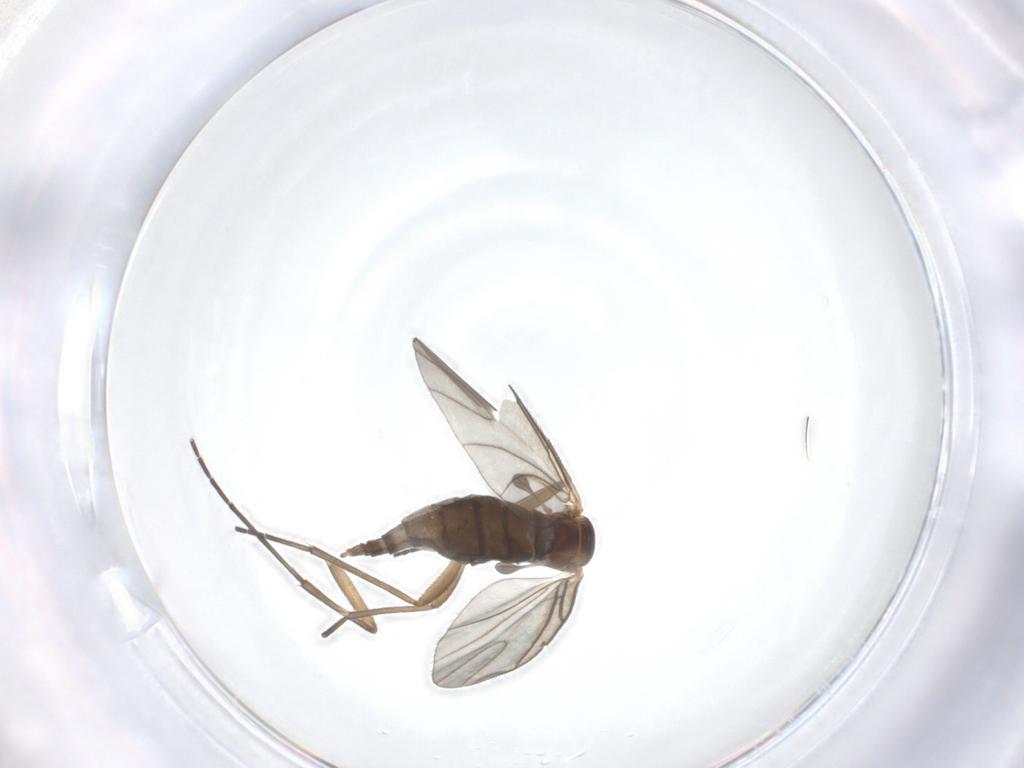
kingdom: Animalia
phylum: Arthropoda
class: Insecta
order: Diptera
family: Sciaridae
